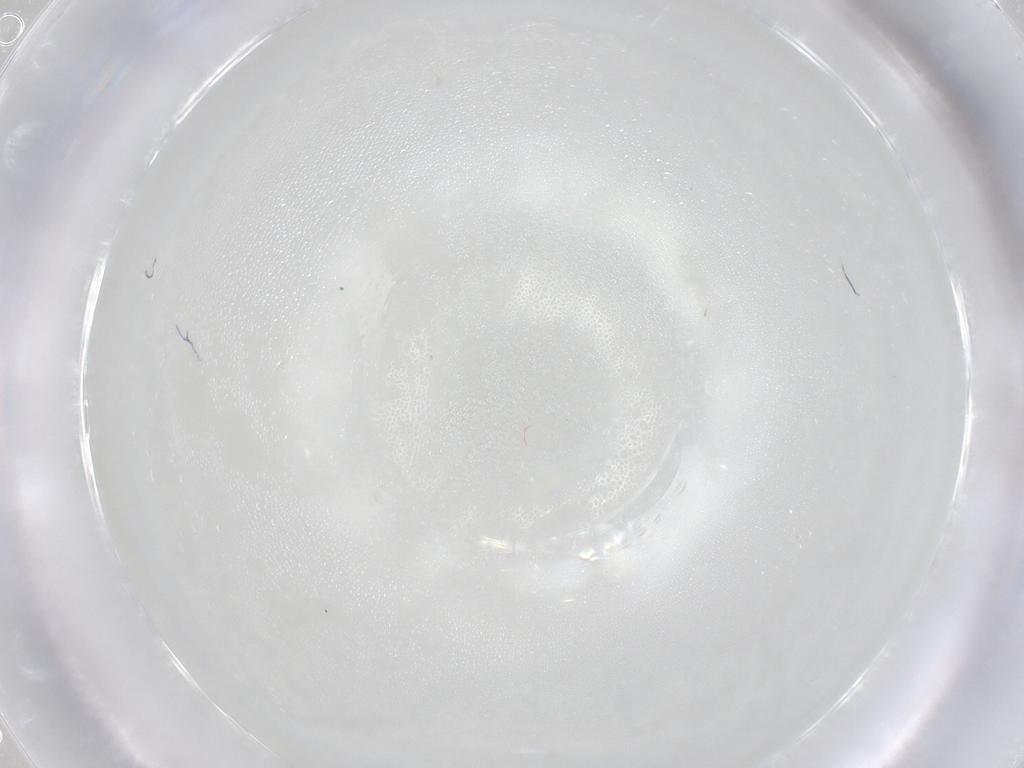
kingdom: Animalia
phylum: Arthropoda
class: Arachnida
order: Trombidiformes
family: Eupodidae
